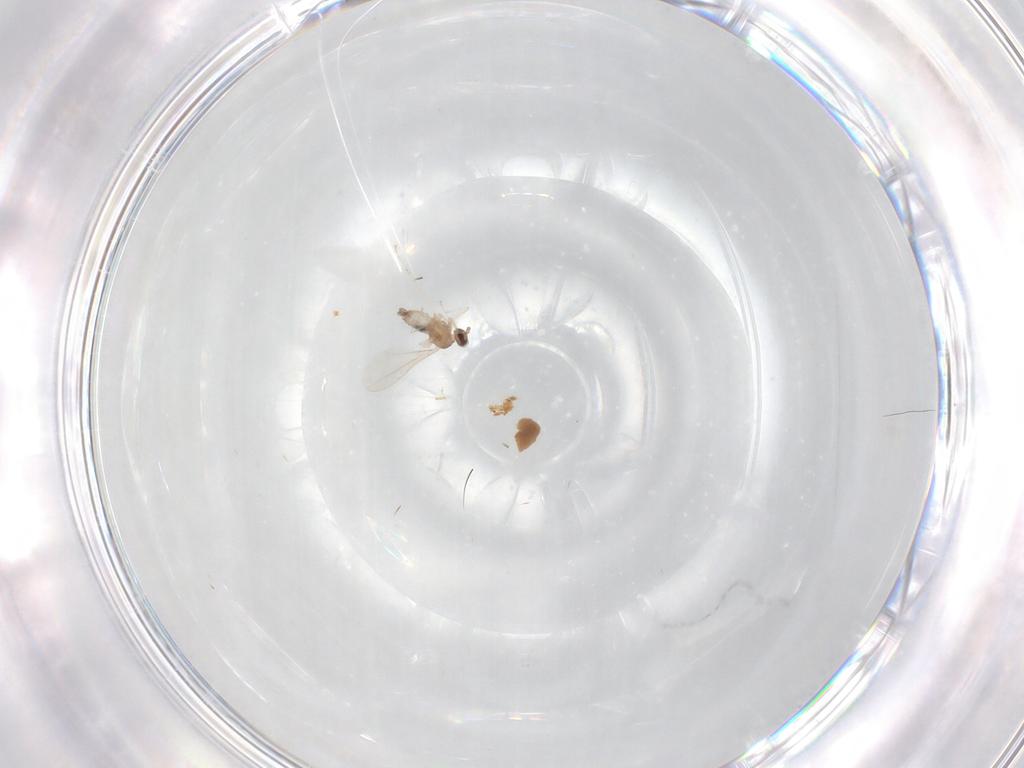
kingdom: Animalia
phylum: Arthropoda
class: Insecta
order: Diptera
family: Cecidomyiidae
